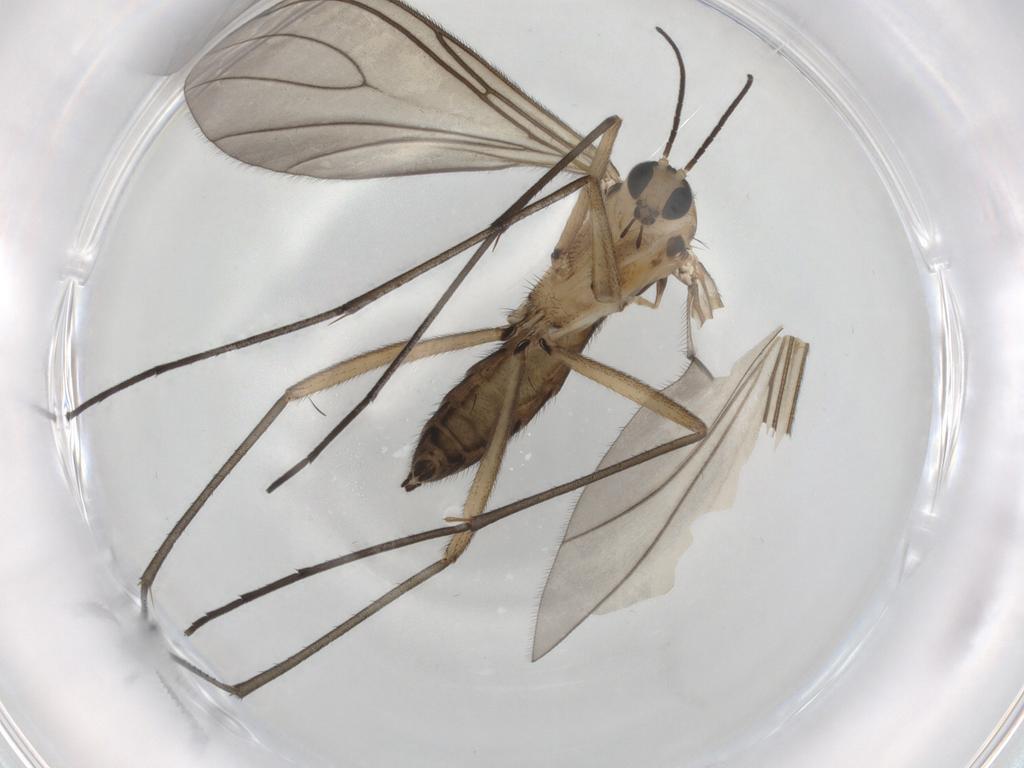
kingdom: Animalia
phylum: Arthropoda
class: Insecta
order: Diptera
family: Sciaridae
